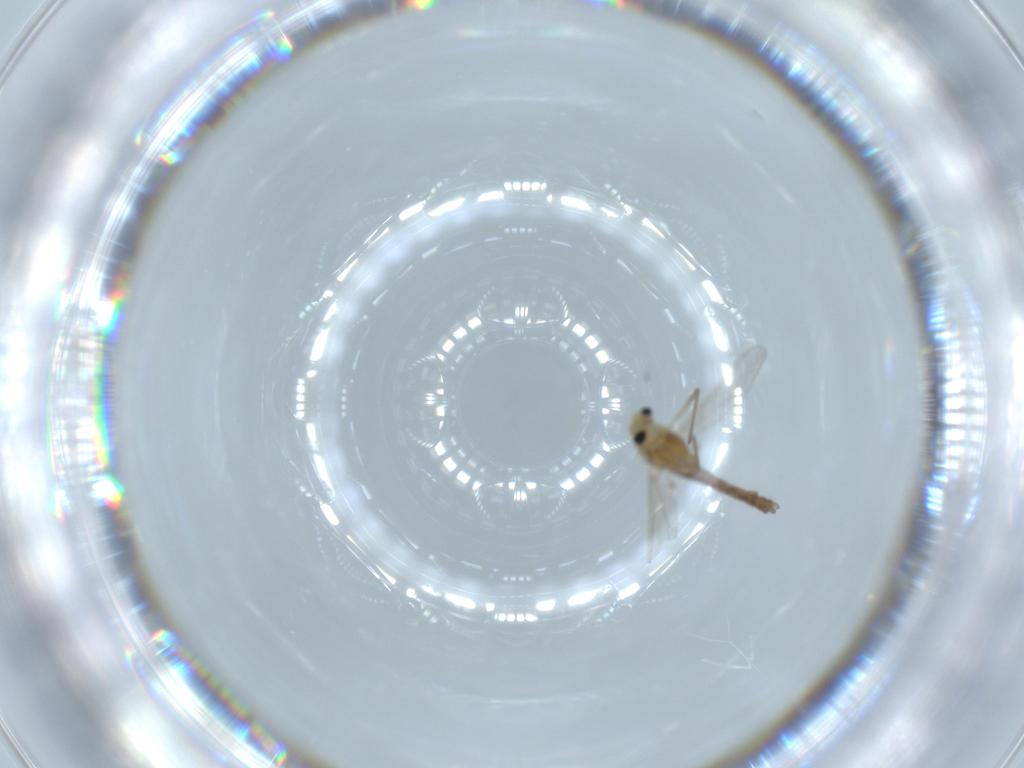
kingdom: Animalia
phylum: Arthropoda
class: Insecta
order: Diptera
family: Chironomidae
